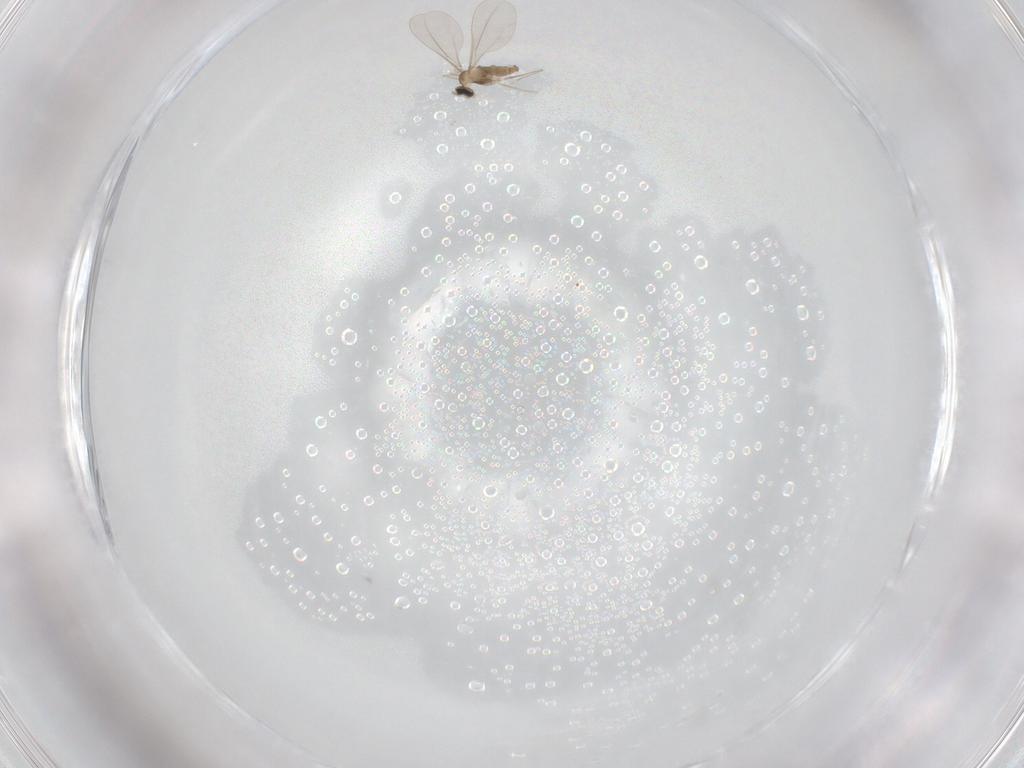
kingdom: Animalia
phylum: Arthropoda
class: Insecta
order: Diptera
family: Cecidomyiidae
